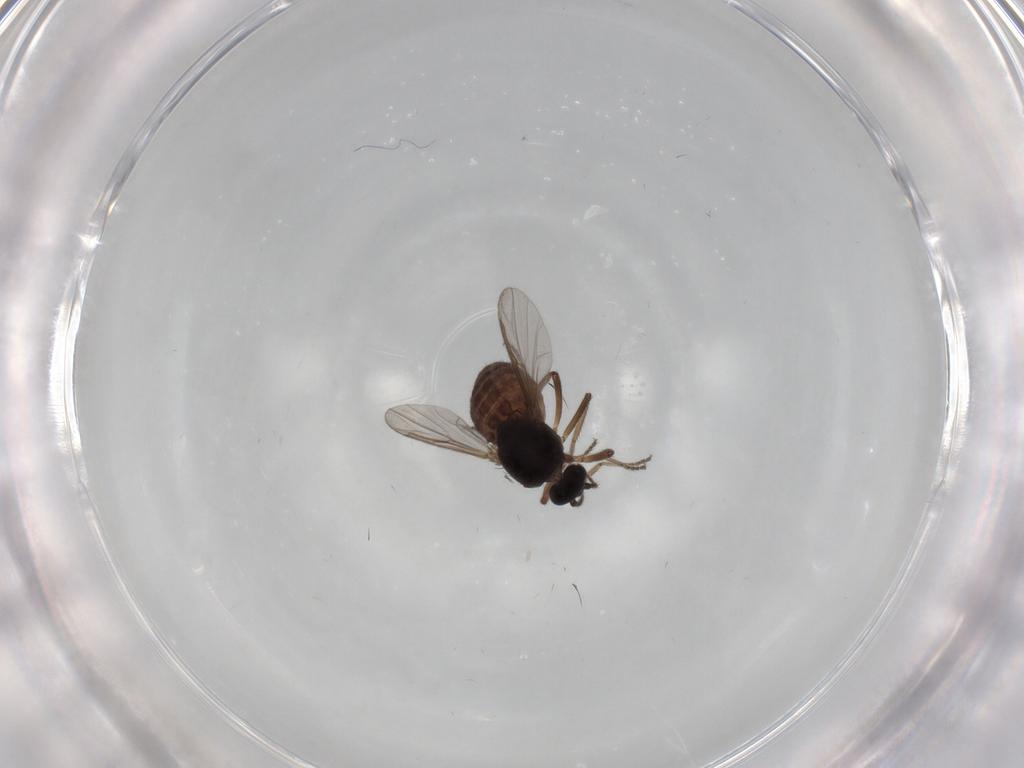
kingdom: Animalia
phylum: Arthropoda
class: Insecta
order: Diptera
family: Ceratopogonidae
